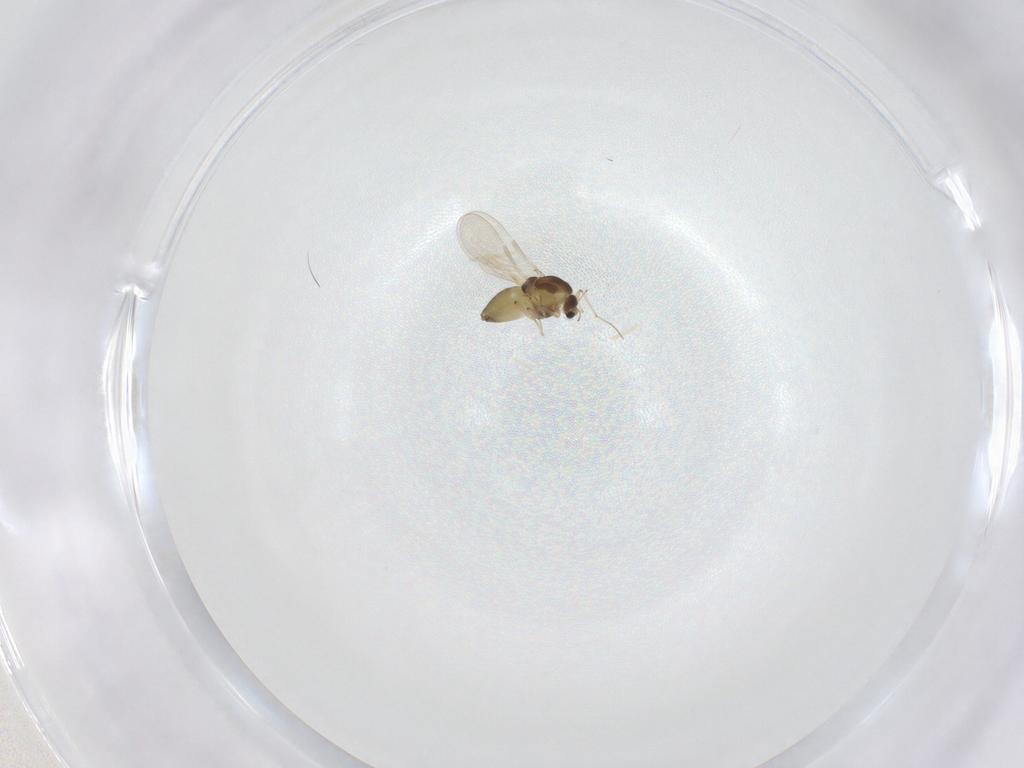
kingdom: Animalia
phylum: Arthropoda
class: Insecta
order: Diptera
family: Chironomidae
